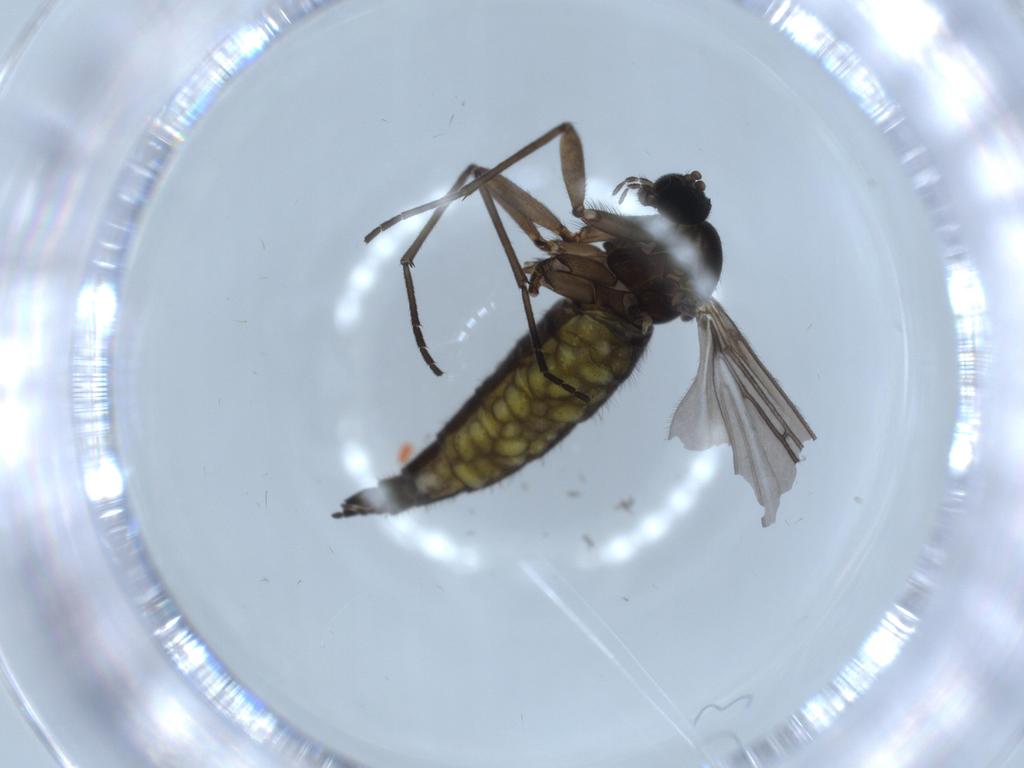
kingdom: Animalia
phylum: Arthropoda
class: Insecta
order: Diptera
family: Sciaridae
